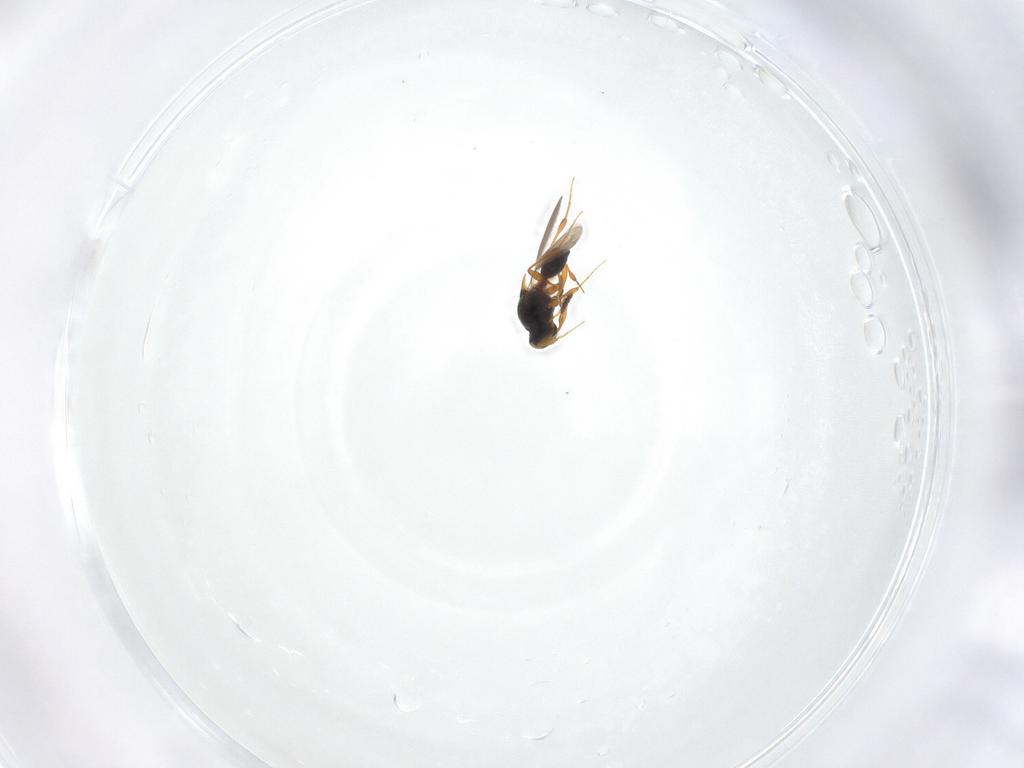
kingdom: Animalia
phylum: Arthropoda
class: Insecta
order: Hymenoptera
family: Platygastridae
